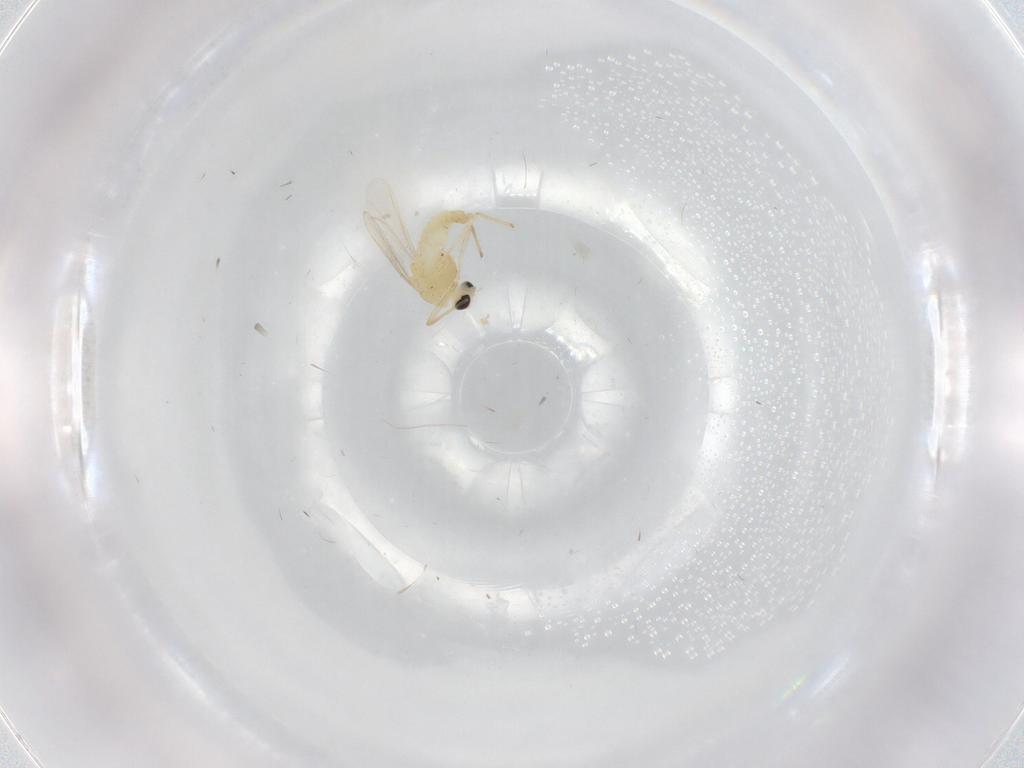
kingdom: Animalia
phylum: Arthropoda
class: Insecta
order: Diptera
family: Chironomidae
